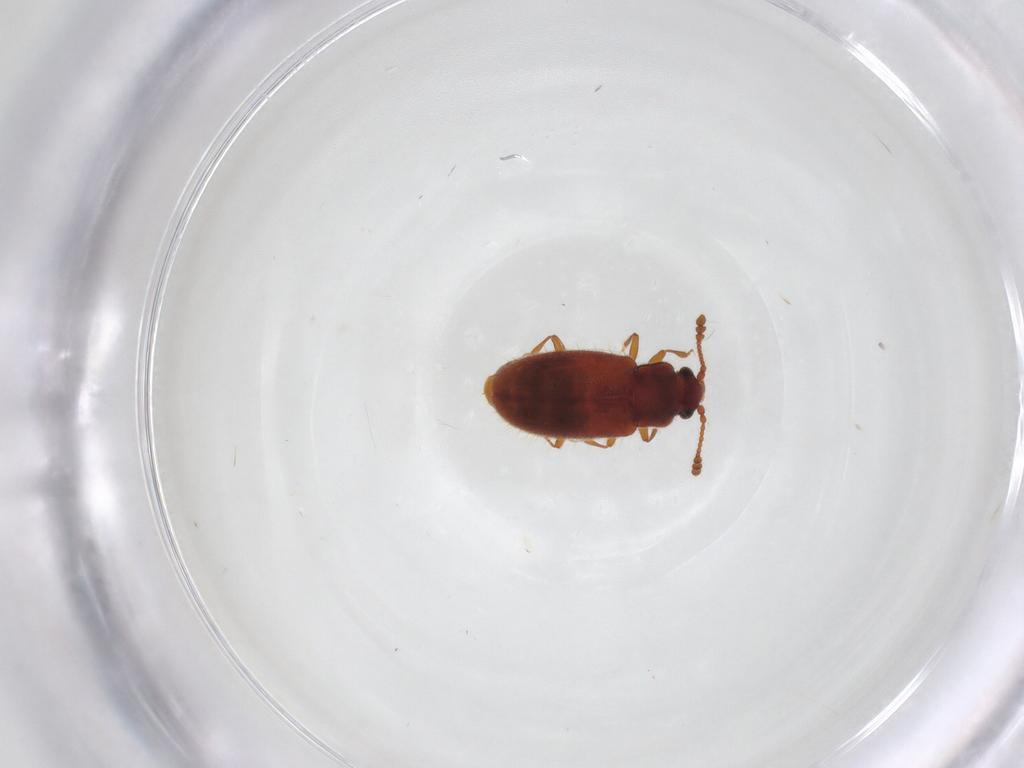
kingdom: Animalia
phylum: Arthropoda
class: Insecta
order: Coleoptera
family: Cryptophagidae
